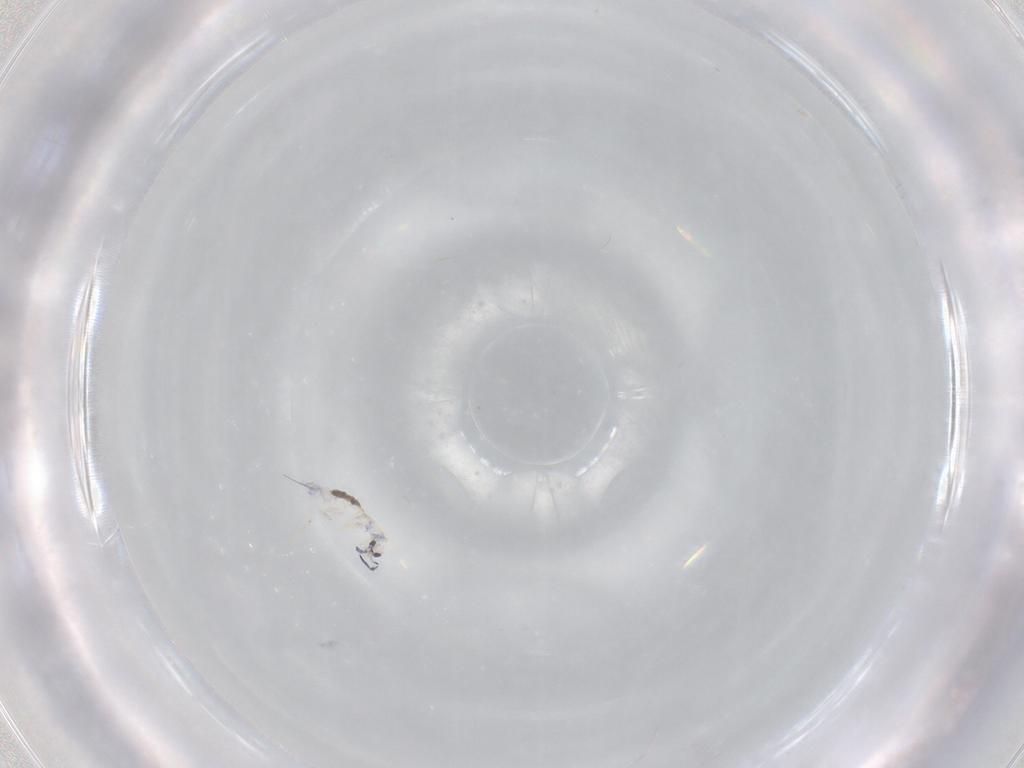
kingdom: Animalia
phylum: Arthropoda
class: Collembola
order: Entomobryomorpha
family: Entomobryidae
